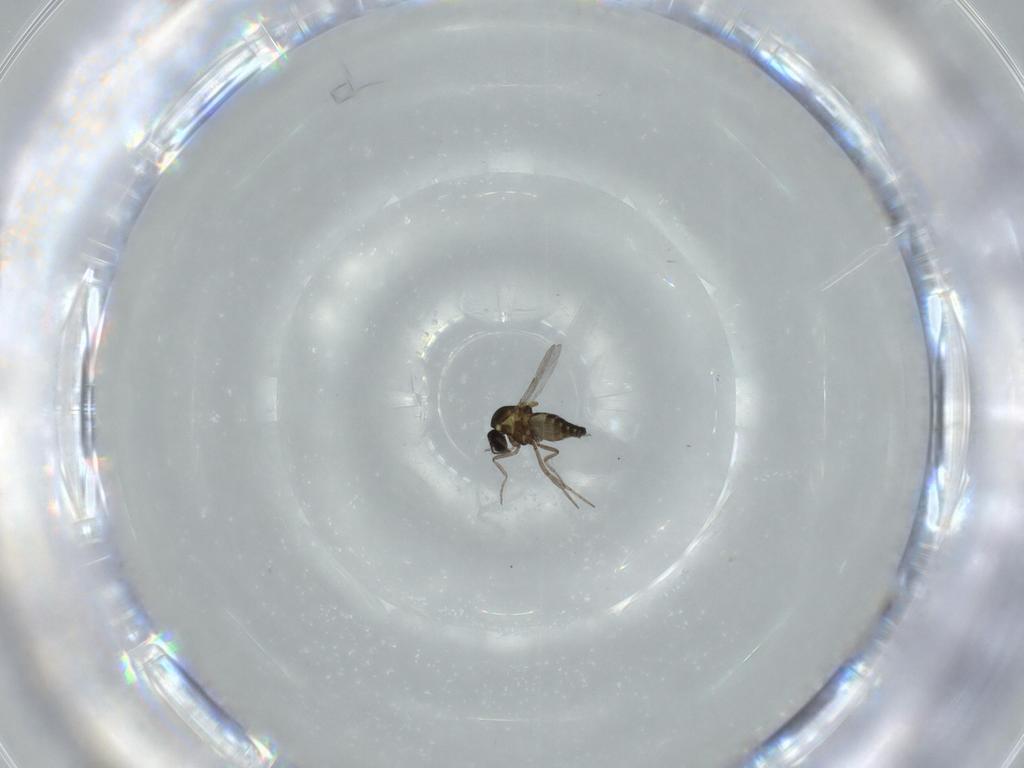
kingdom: Animalia
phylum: Arthropoda
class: Insecta
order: Diptera
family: Ceratopogonidae
